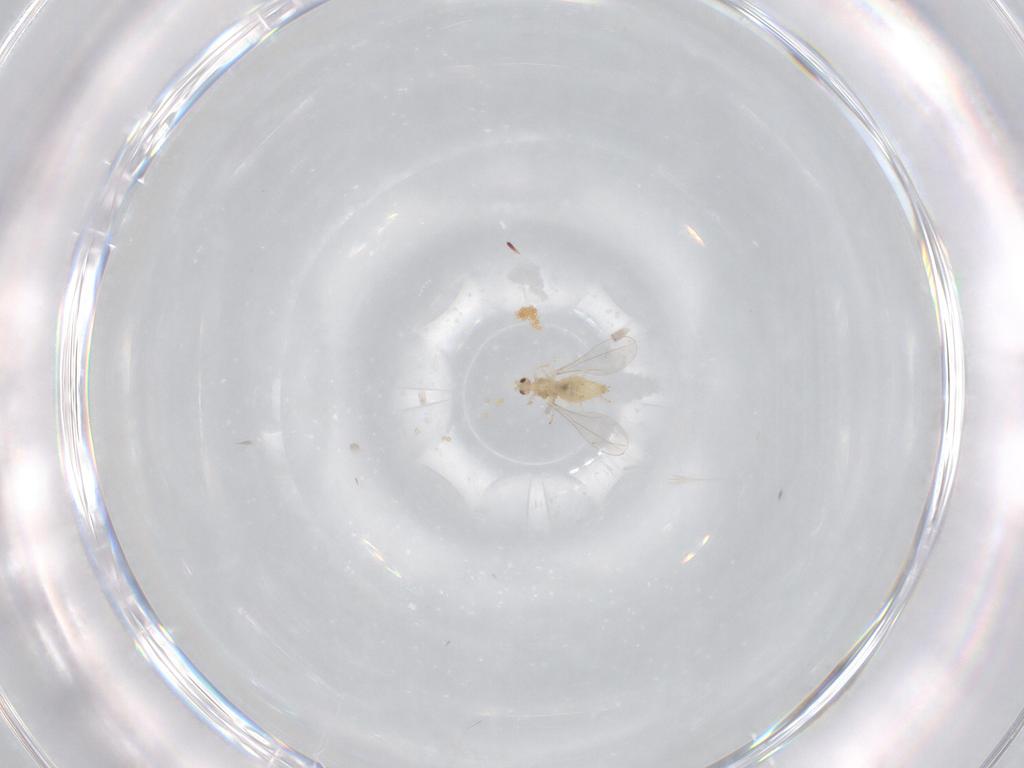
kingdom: Animalia
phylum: Arthropoda
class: Insecta
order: Diptera
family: Cecidomyiidae
